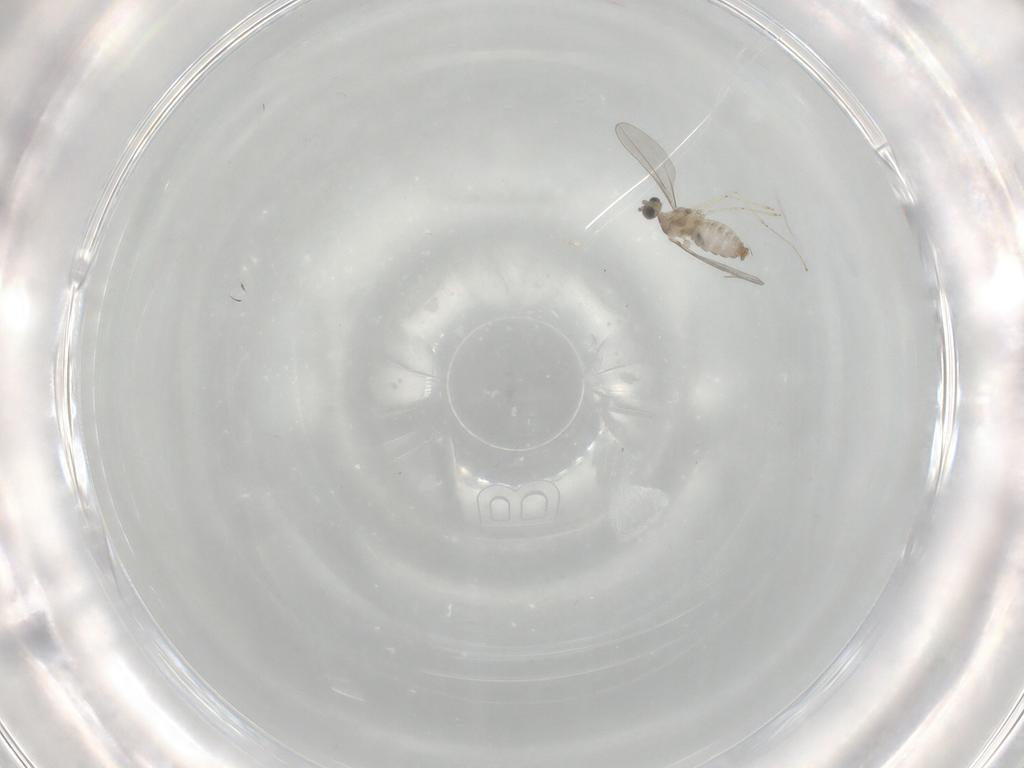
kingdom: Animalia
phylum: Arthropoda
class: Insecta
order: Diptera
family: Cecidomyiidae
